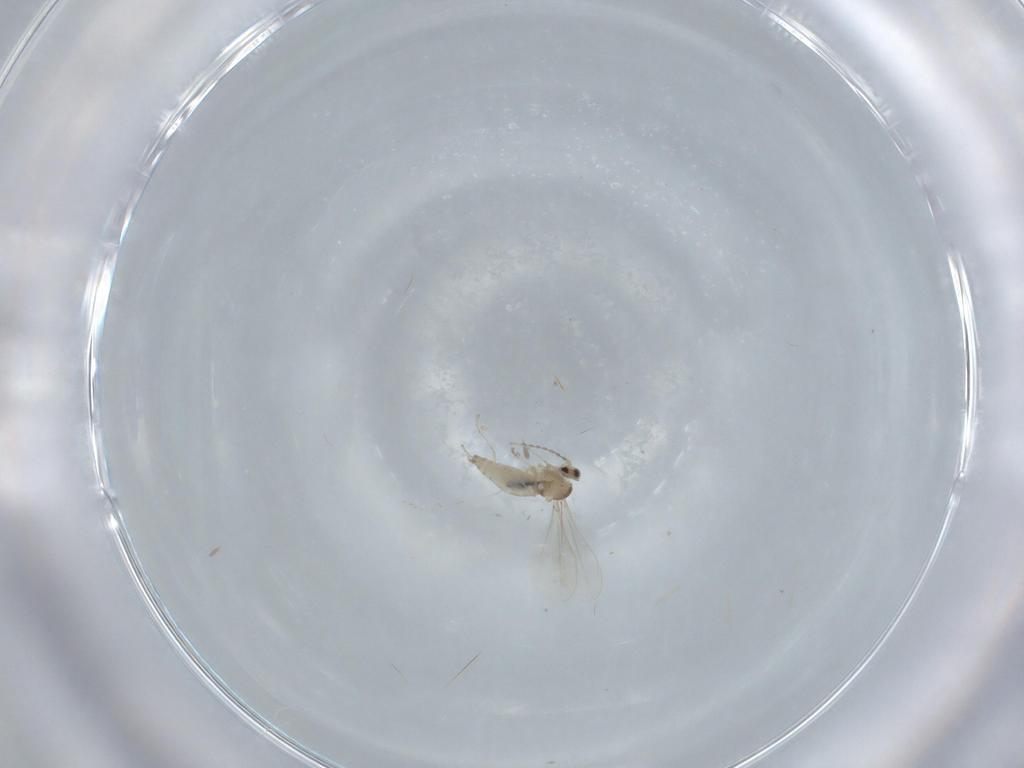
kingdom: Animalia
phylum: Arthropoda
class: Insecta
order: Diptera
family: Cecidomyiidae
